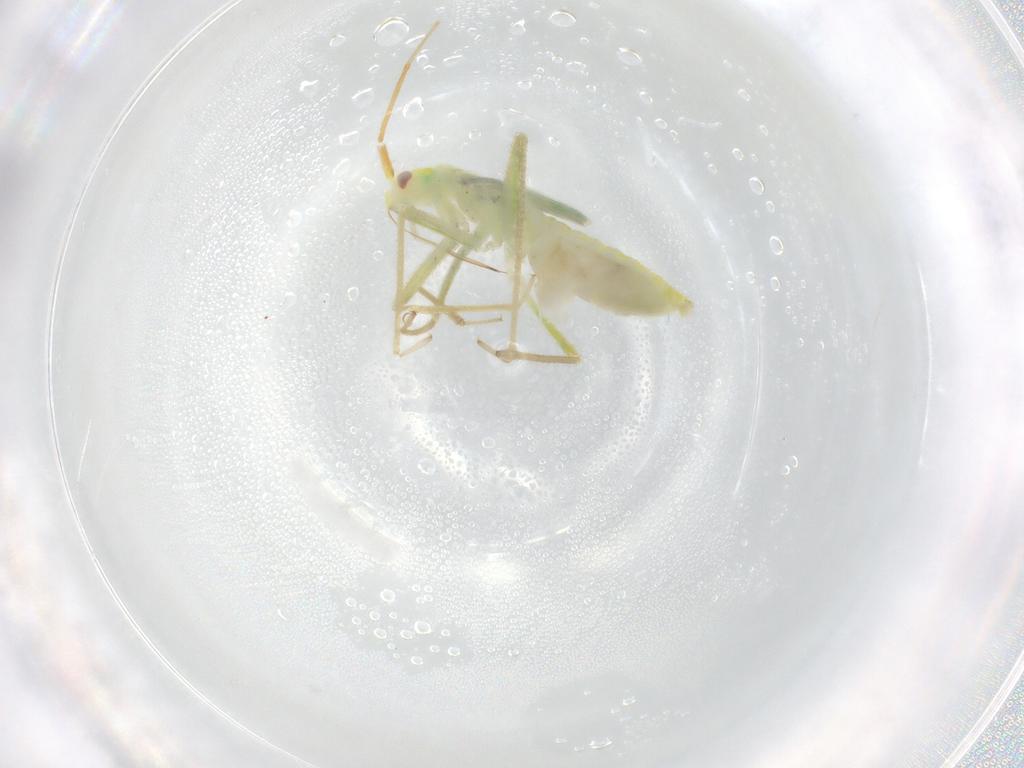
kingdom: Animalia
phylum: Arthropoda
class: Insecta
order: Hemiptera
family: Miridae
